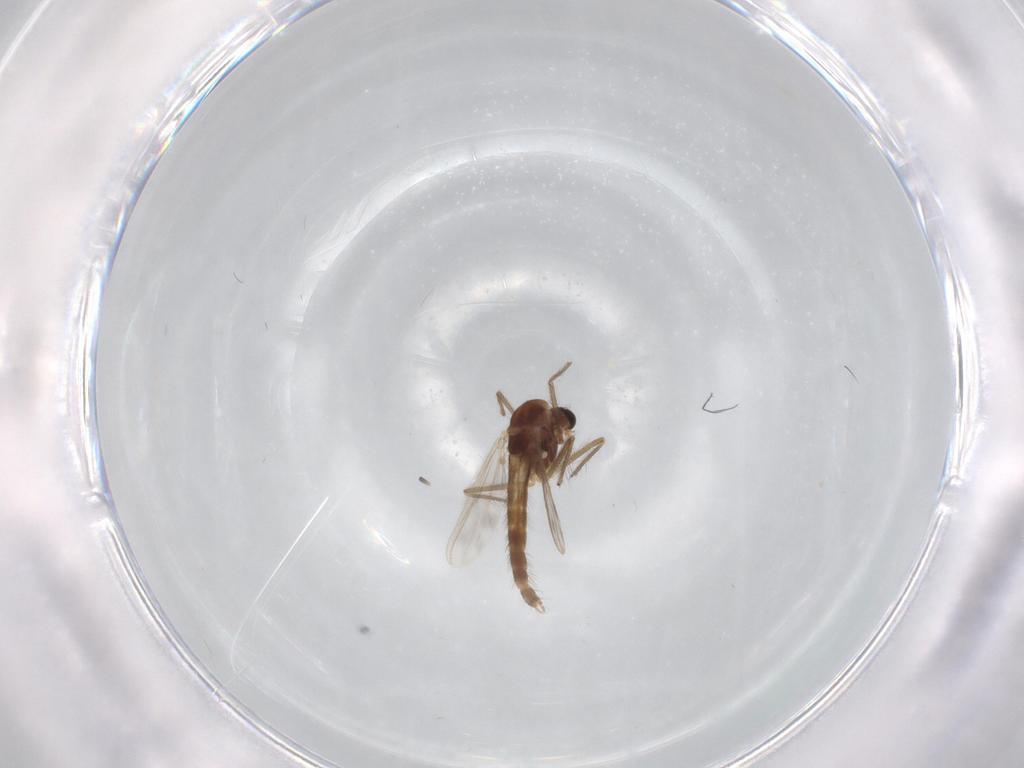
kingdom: Animalia
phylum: Arthropoda
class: Insecta
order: Diptera
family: Chironomidae
